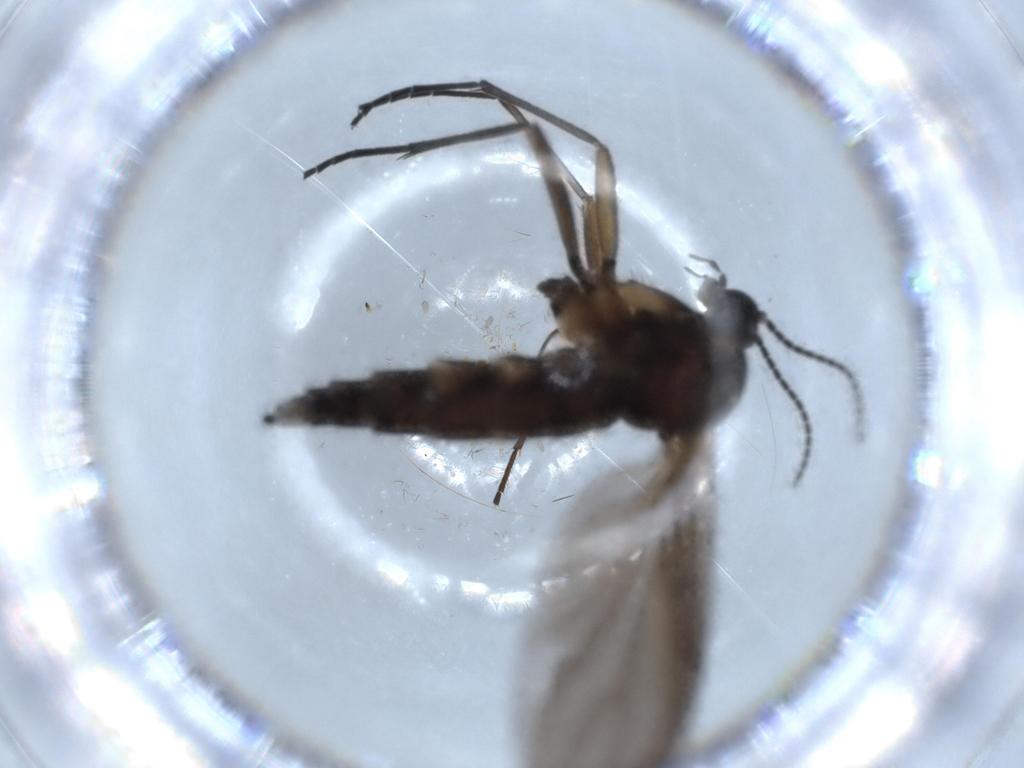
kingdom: Animalia
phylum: Arthropoda
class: Insecta
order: Diptera
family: Sciaridae
